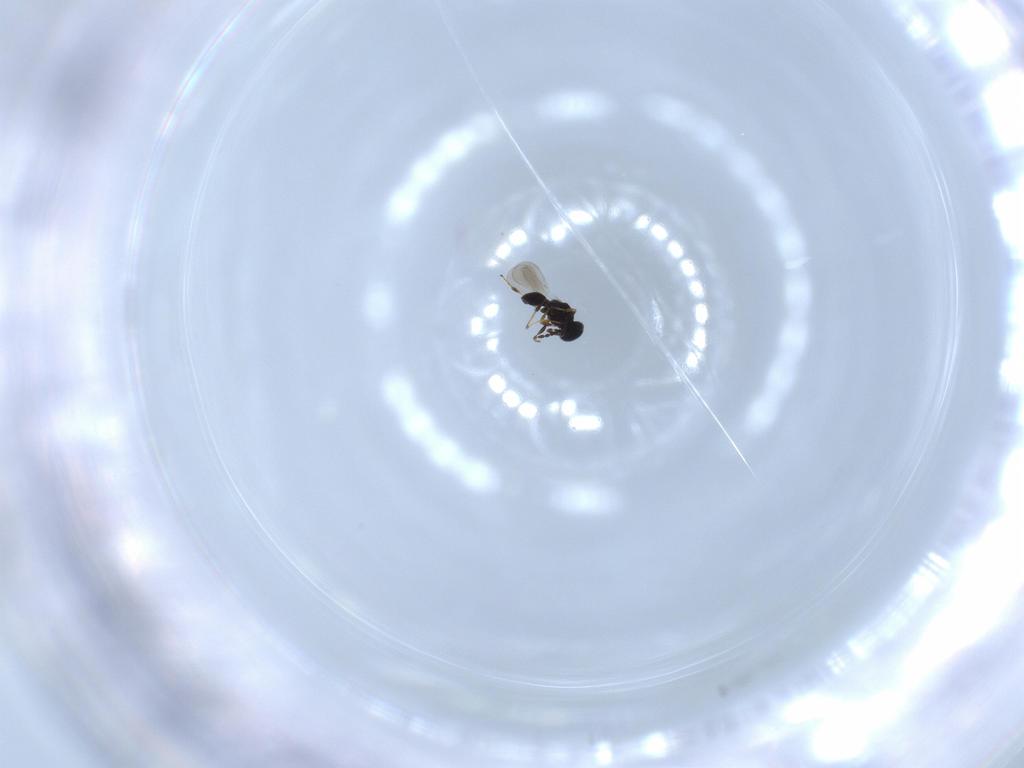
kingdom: Animalia
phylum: Arthropoda
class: Insecta
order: Hymenoptera
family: Platygastridae
